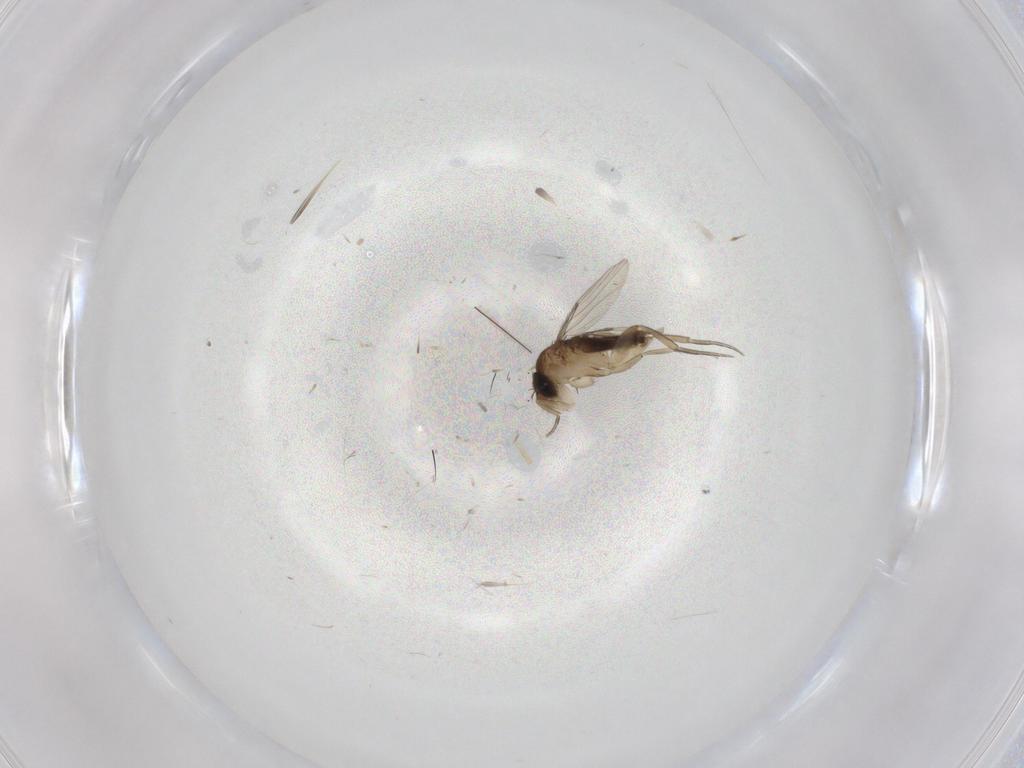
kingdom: Animalia
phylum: Arthropoda
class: Insecta
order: Diptera
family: Phoridae
